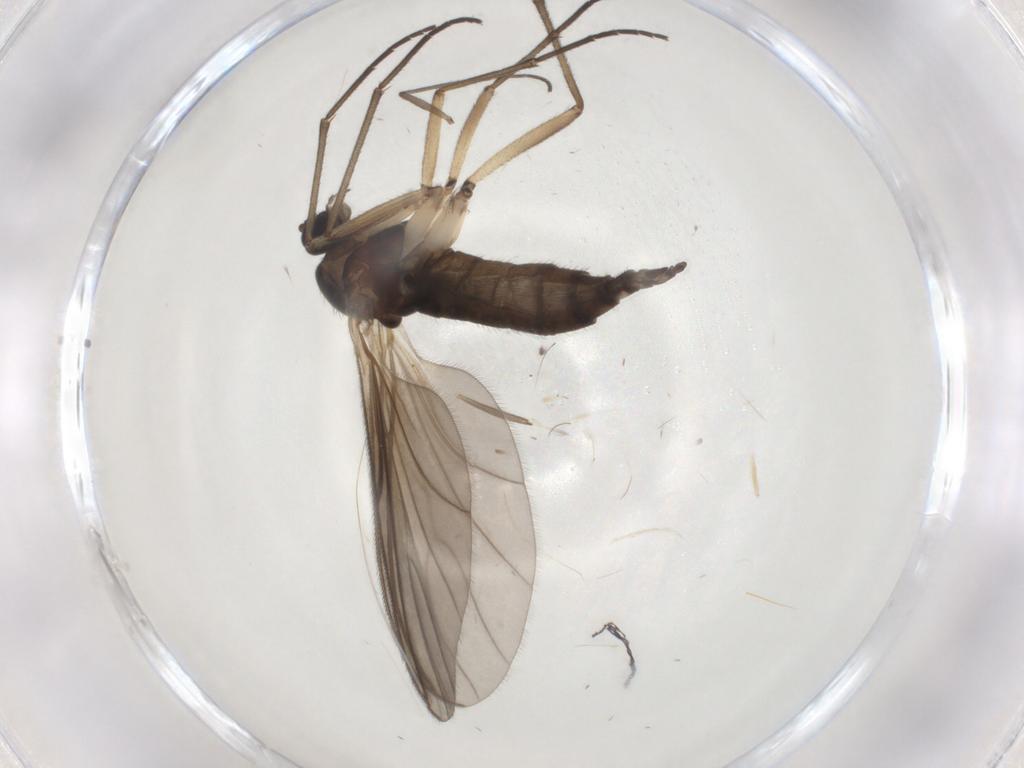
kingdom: Animalia
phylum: Arthropoda
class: Insecta
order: Diptera
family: Sciaridae
